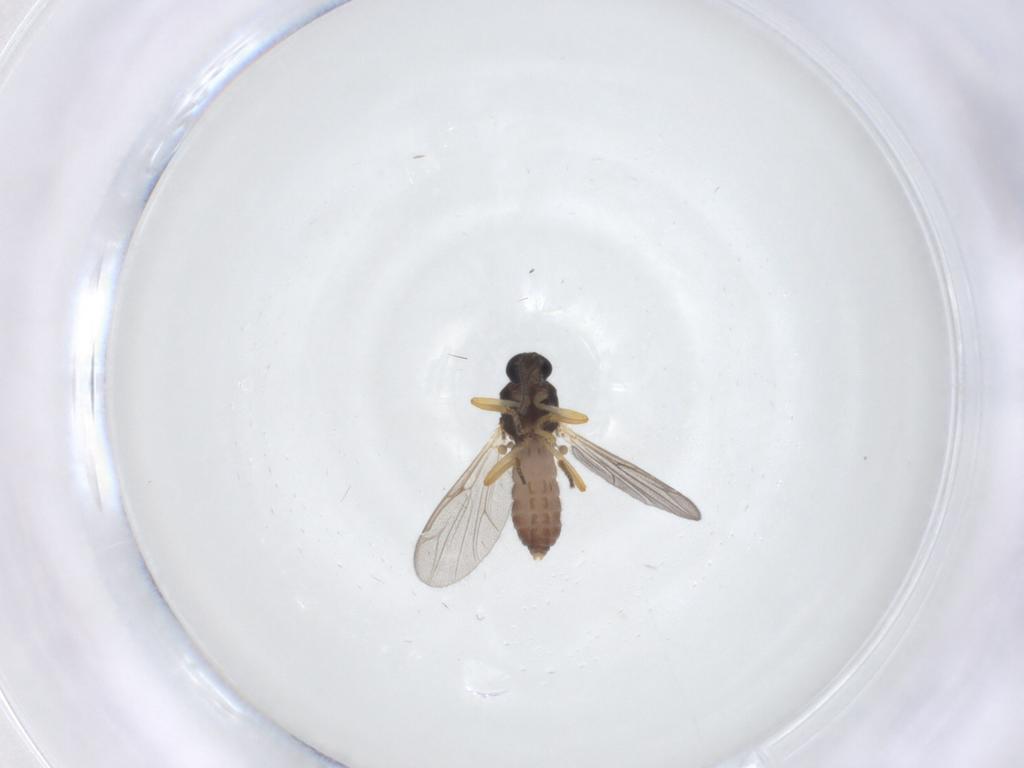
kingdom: Animalia
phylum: Arthropoda
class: Insecta
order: Diptera
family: Ceratopogonidae
